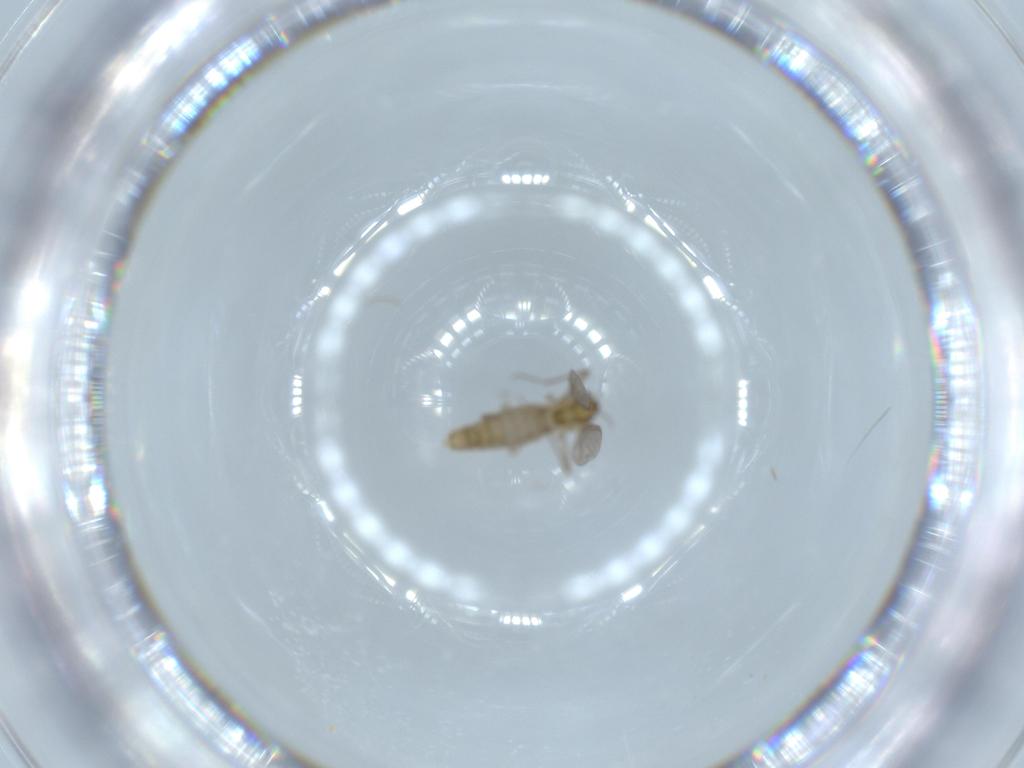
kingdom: Animalia
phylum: Arthropoda
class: Insecta
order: Diptera
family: Chironomidae
